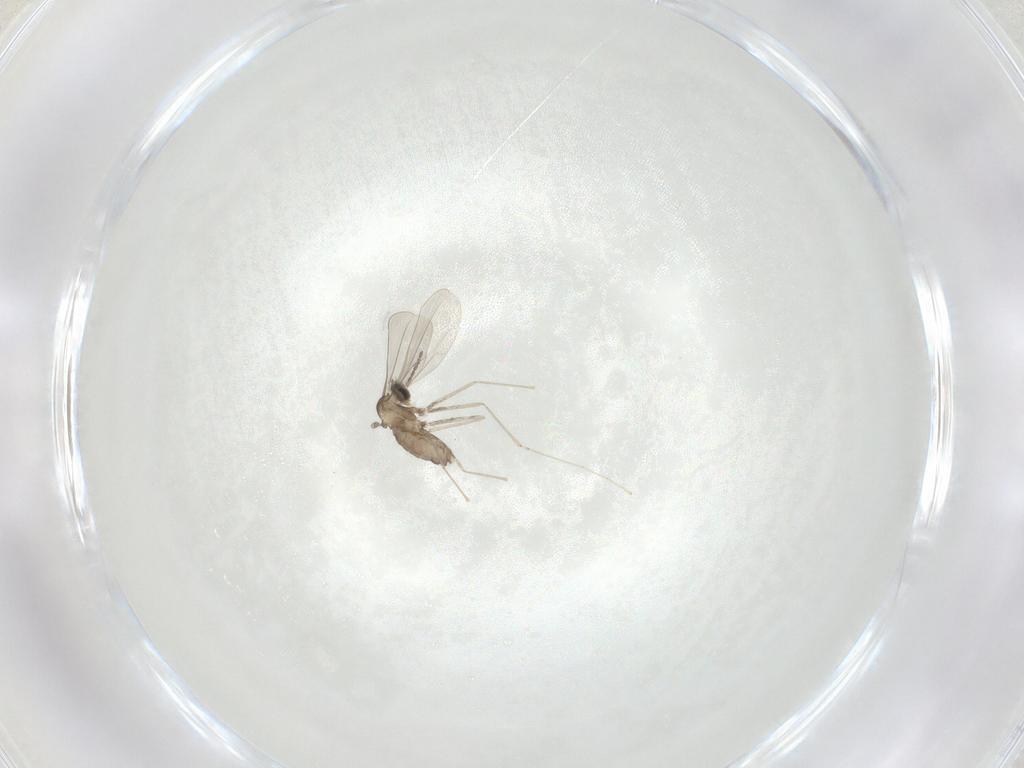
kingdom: Animalia
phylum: Arthropoda
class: Insecta
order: Diptera
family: Cecidomyiidae
